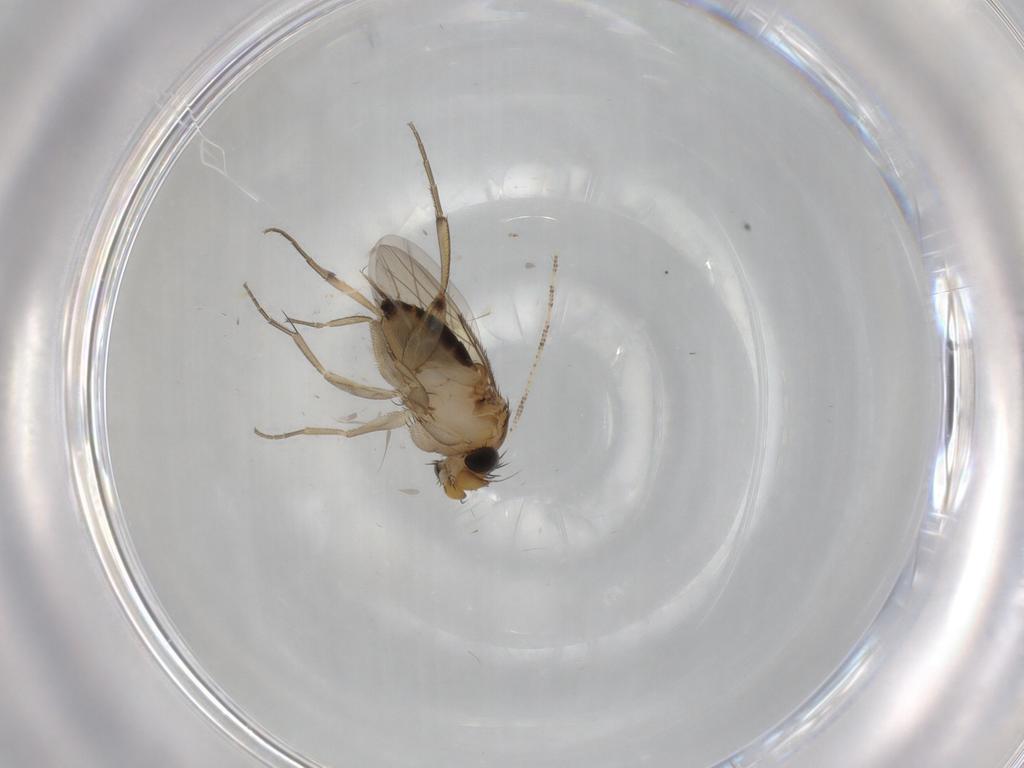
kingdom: Animalia
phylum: Arthropoda
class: Insecta
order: Diptera
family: Cecidomyiidae
